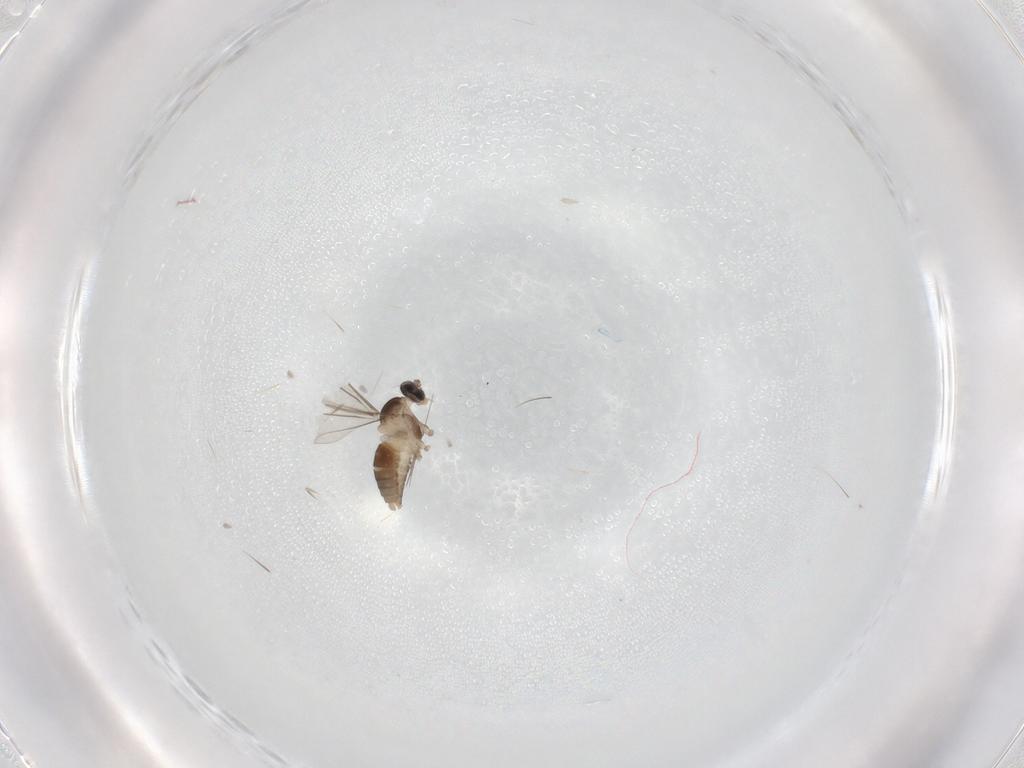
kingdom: Animalia
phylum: Arthropoda
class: Insecta
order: Diptera
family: Cecidomyiidae
